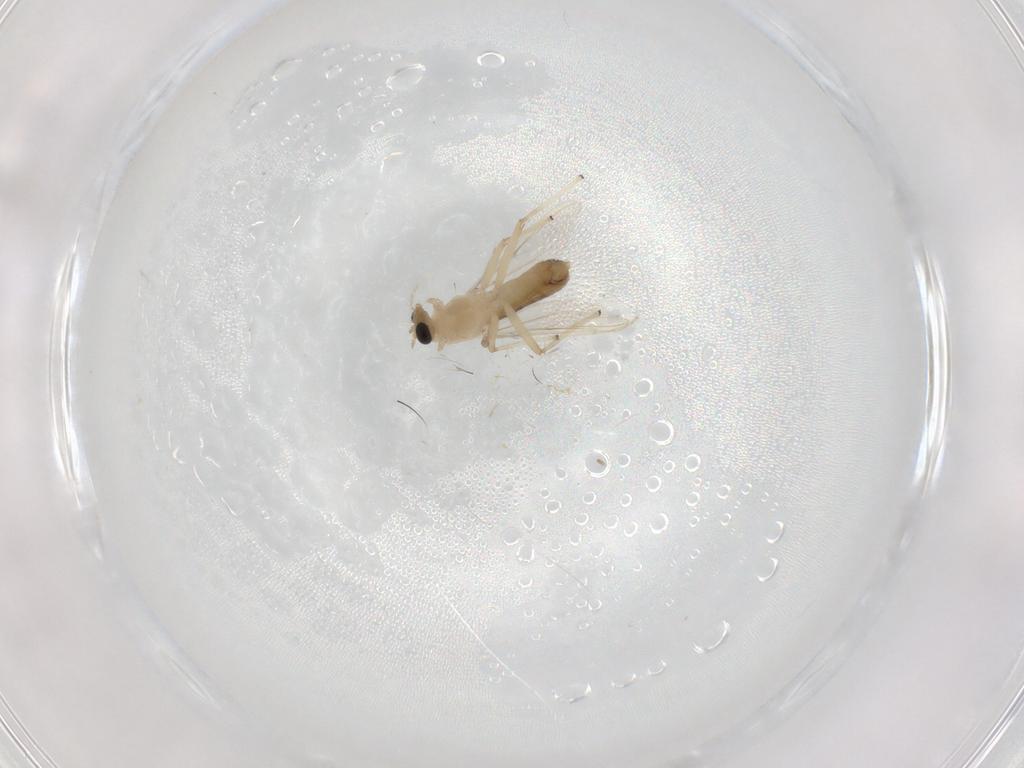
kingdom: Animalia
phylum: Arthropoda
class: Insecta
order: Diptera
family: Chironomidae
